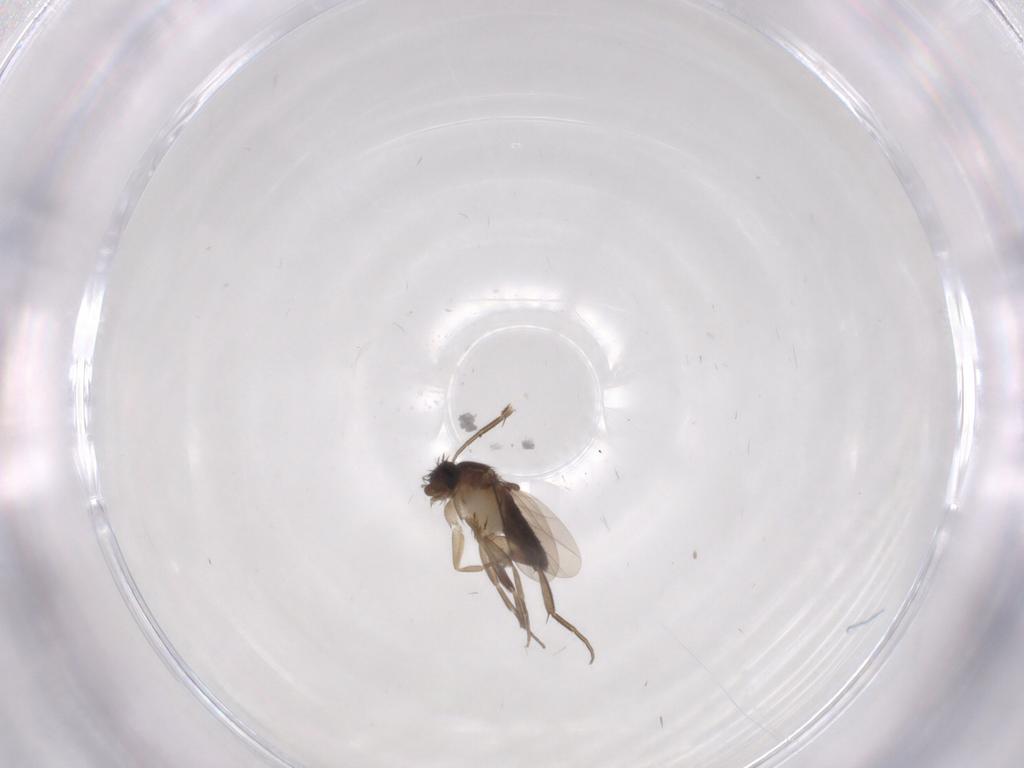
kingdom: Animalia
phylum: Arthropoda
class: Insecta
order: Diptera
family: Phoridae
